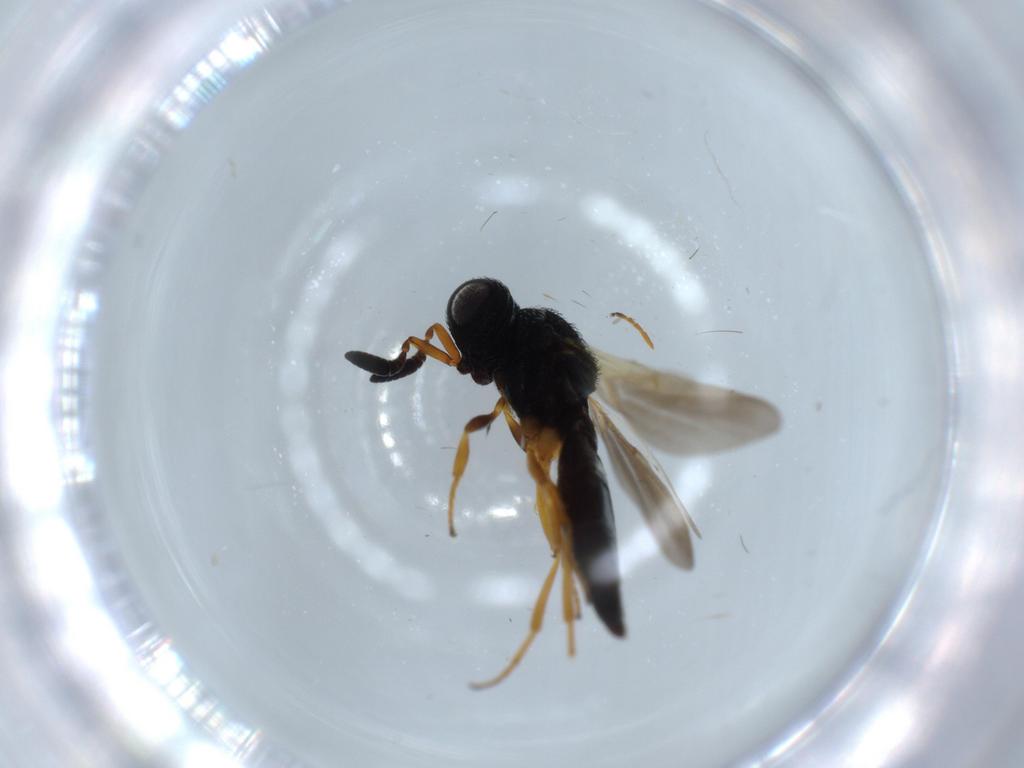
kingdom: Animalia
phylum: Arthropoda
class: Insecta
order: Hymenoptera
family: Scelionidae
